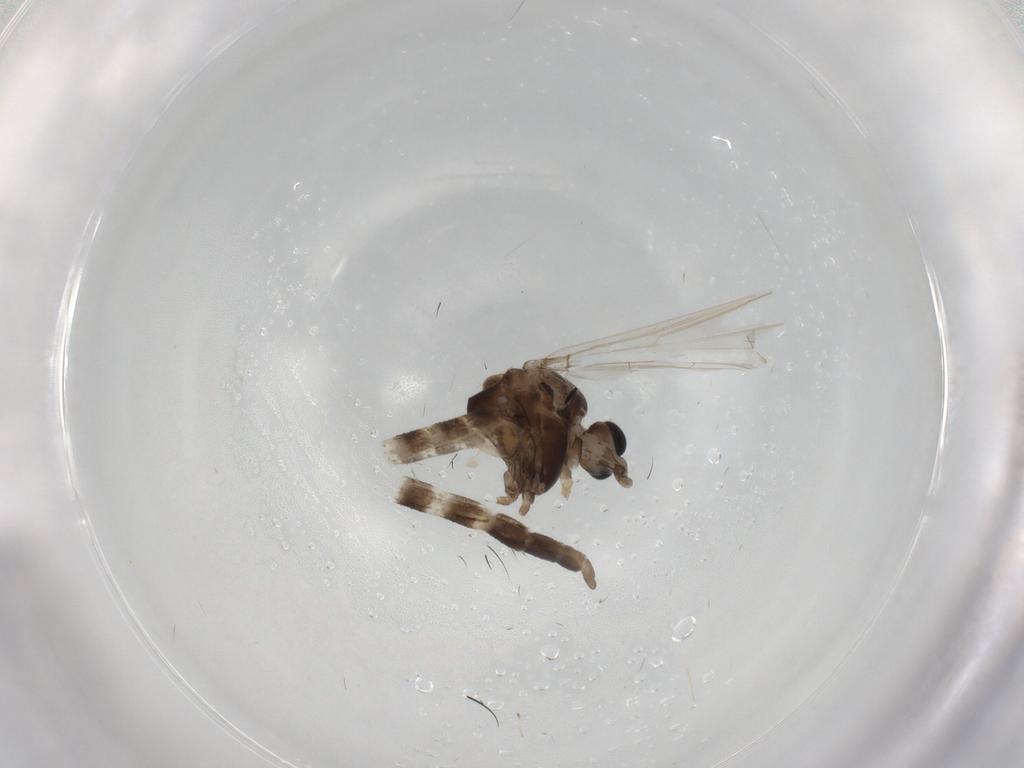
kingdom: Animalia
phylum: Arthropoda
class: Insecta
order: Diptera
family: Chironomidae
